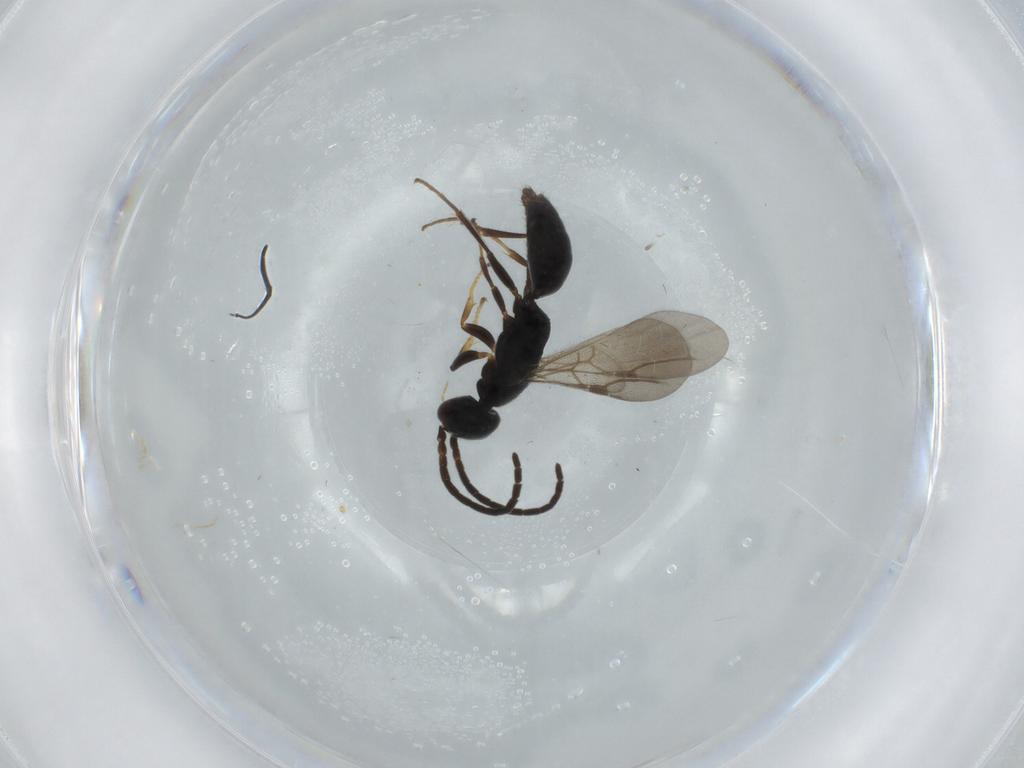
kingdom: Animalia
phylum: Arthropoda
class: Insecta
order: Hymenoptera
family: Bethylidae
